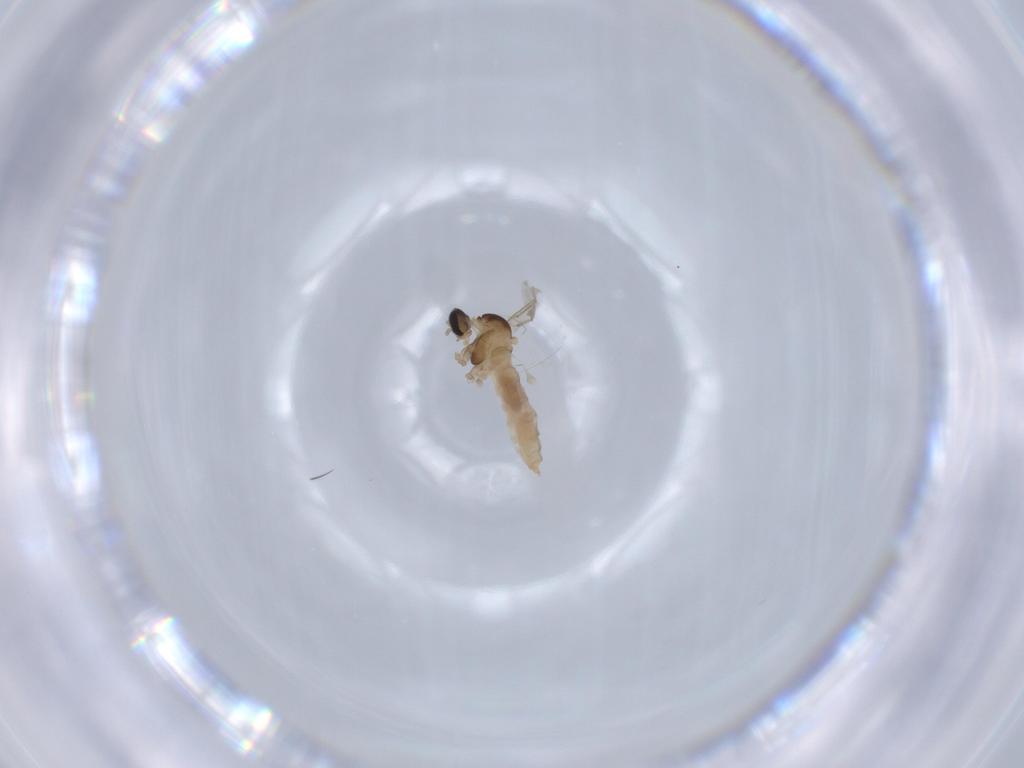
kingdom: Animalia
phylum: Arthropoda
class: Insecta
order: Diptera
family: Cecidomyiidae
